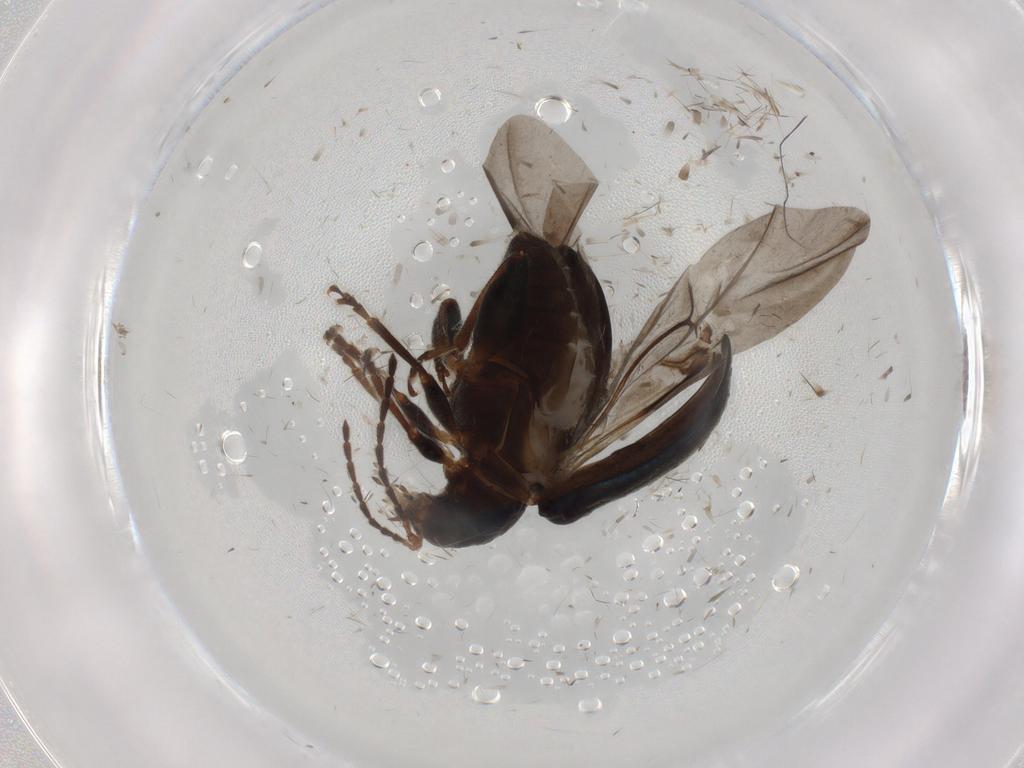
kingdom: Animalia
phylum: Arthropoda
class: Insecta
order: Coleoptera
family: Chrysomelidae
